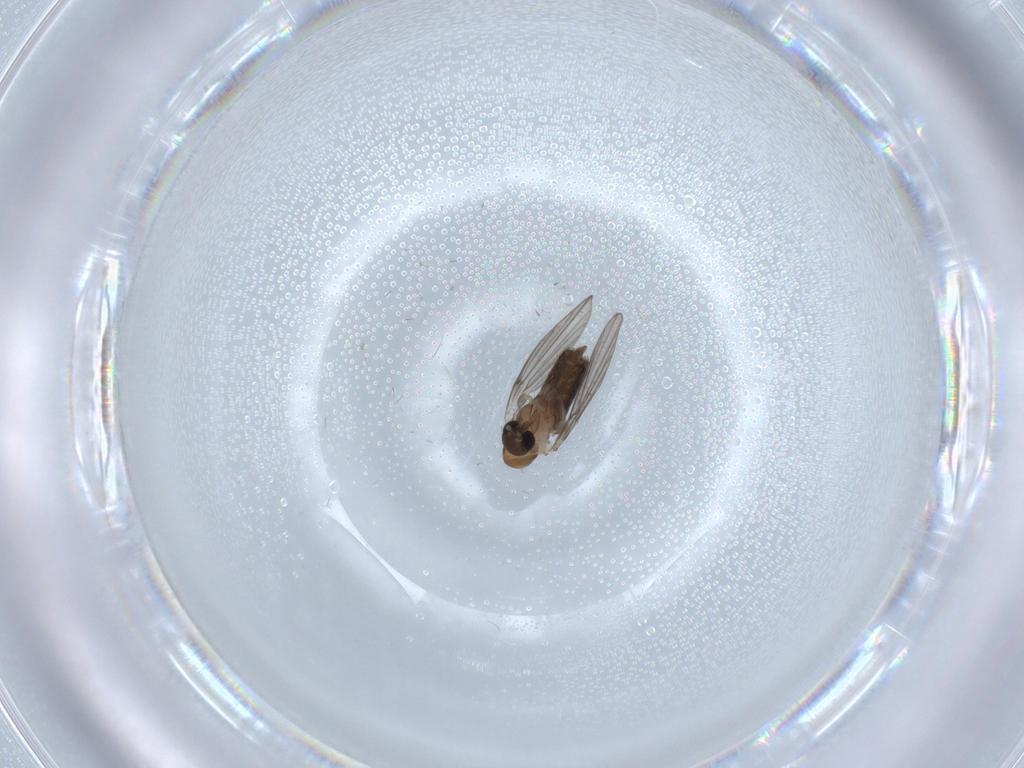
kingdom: Animalia
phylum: Arthropoda
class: Insecta
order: Diptera
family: Psychodidae
